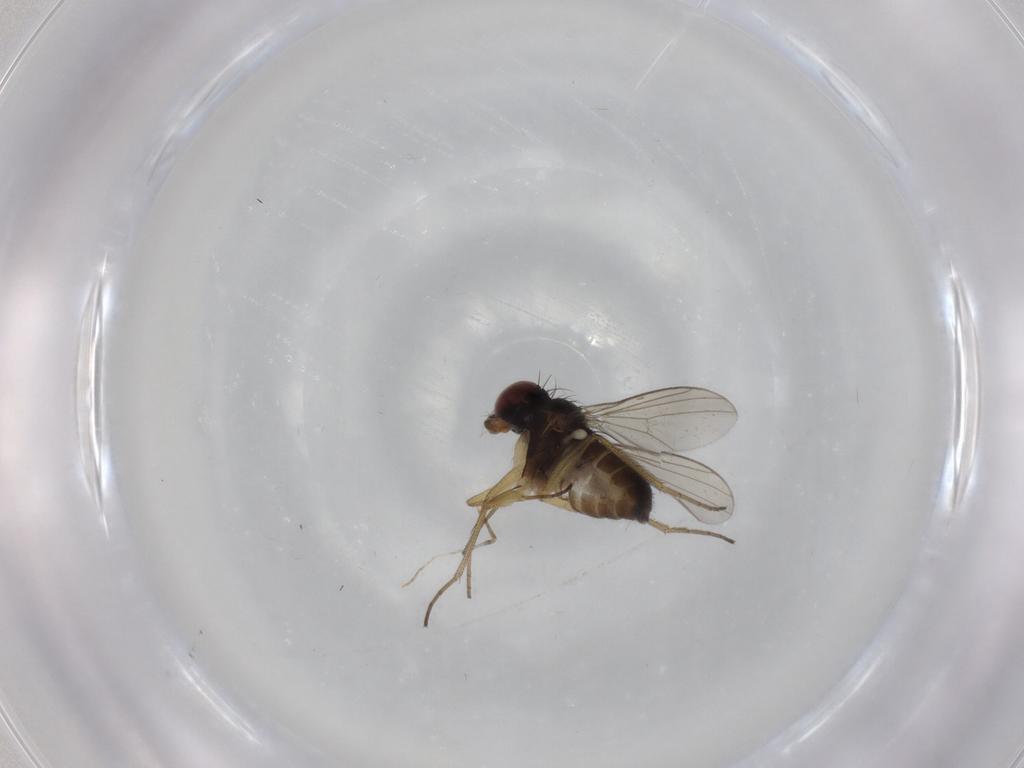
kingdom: Animalia
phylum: Arthropoda
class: Insecta
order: Diptera
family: Dolichopodidae
